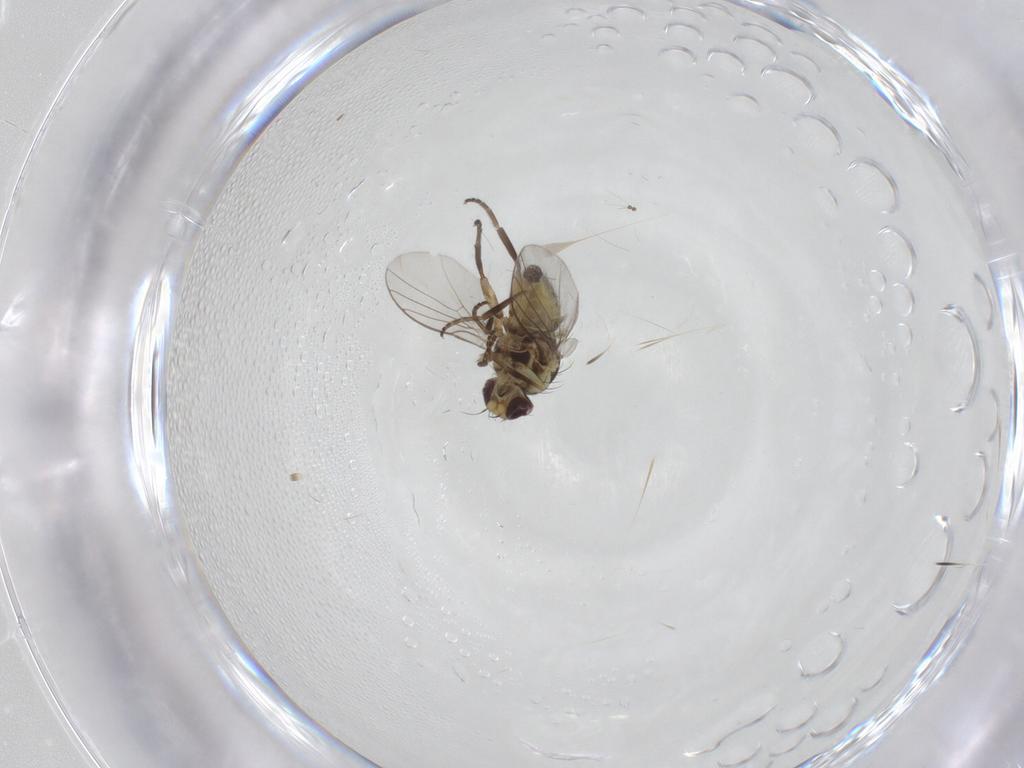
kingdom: Animalia
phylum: Arthropoda
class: Insecta
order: Diptera
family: Agromyzidae
